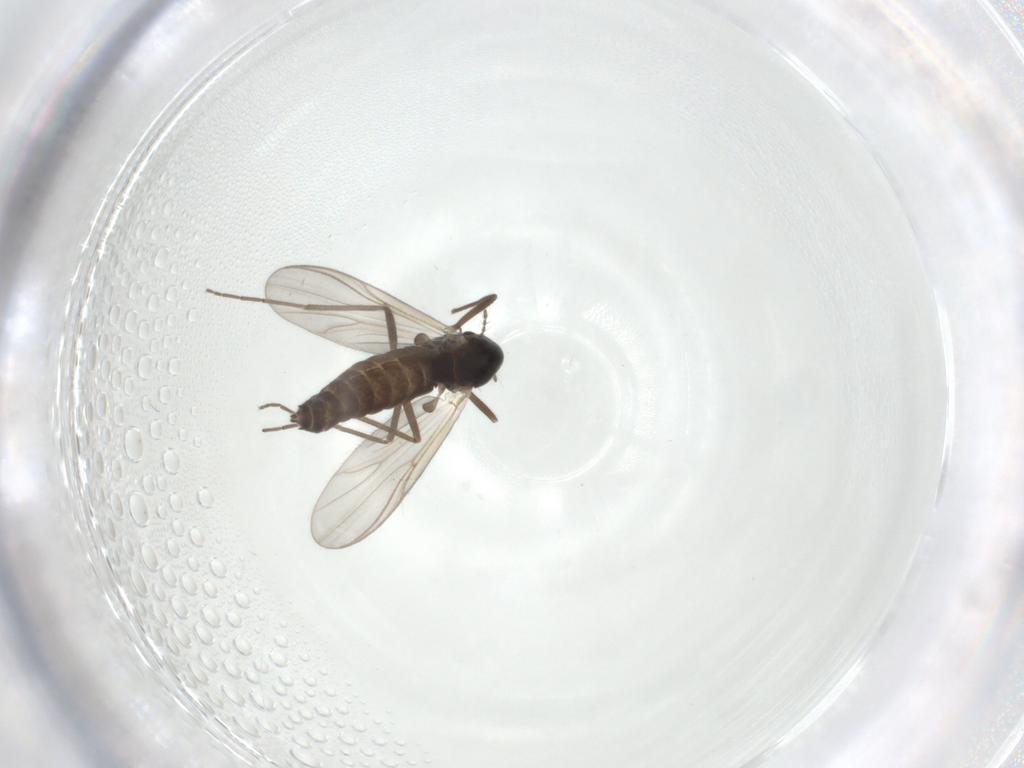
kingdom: Animalia
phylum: Arthropoda
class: Insecta
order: Diptera
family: Chironomidae
